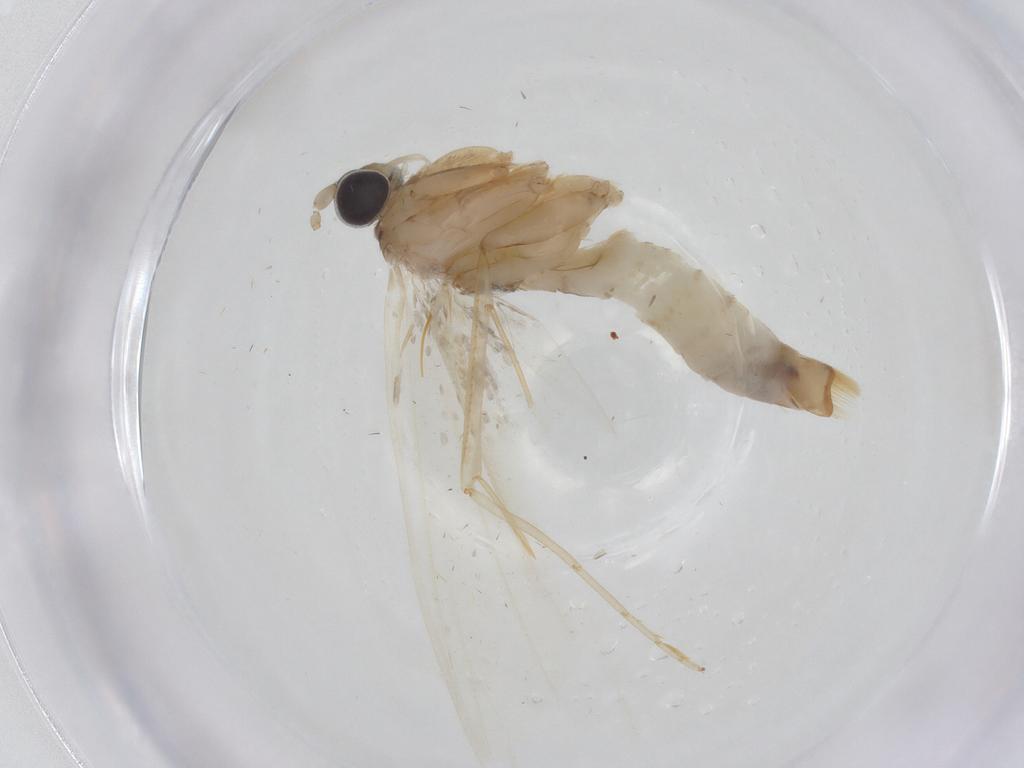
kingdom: Animalia
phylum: Arthropoda
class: Insecta
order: Lepidoptera
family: Tineidae
